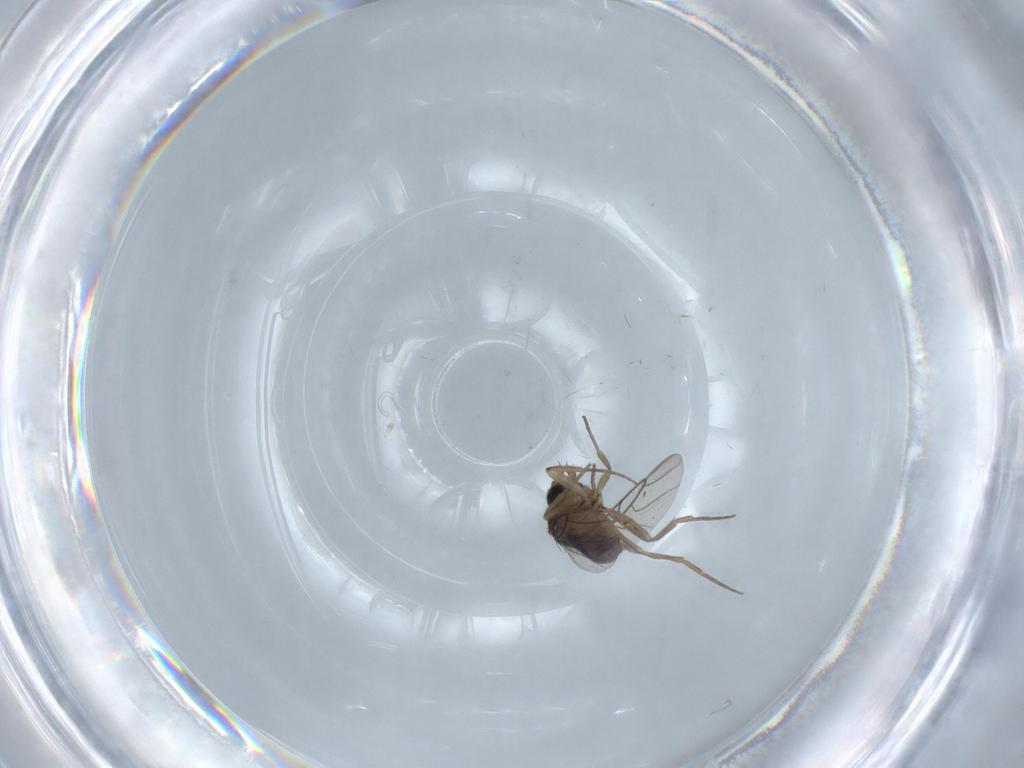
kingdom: Animalia
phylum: Arthropoda
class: Insecta
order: Diptera
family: Phoridae
